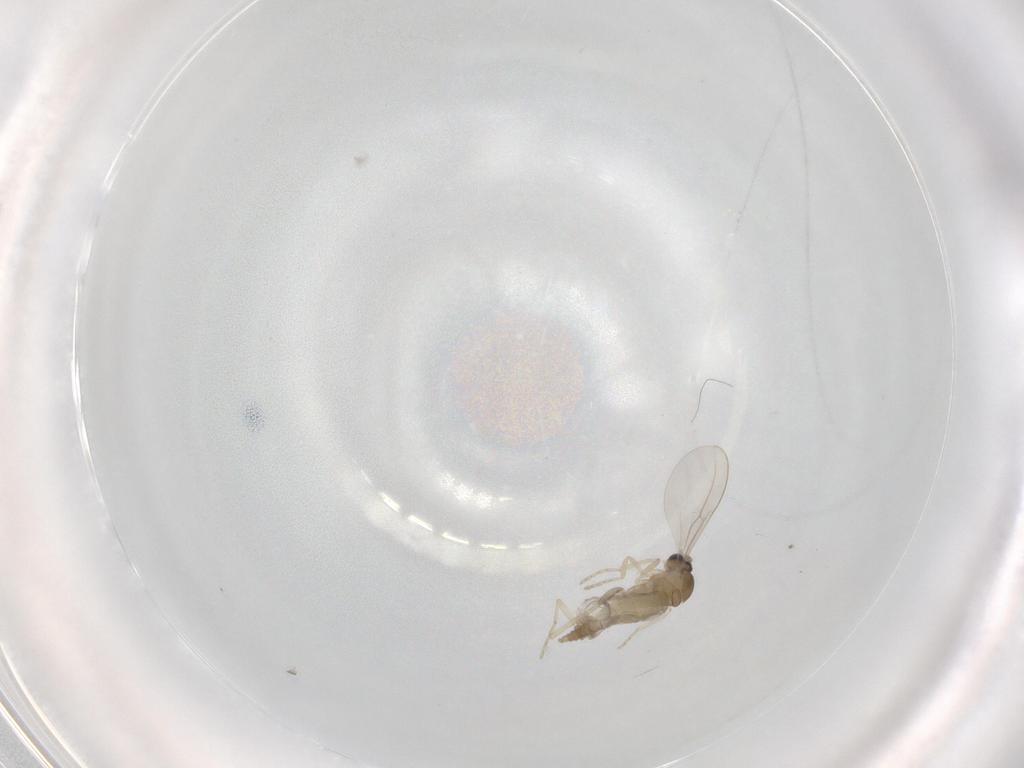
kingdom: Animalia
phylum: Arthropoda
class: Insecta
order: Diptera
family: Cecidomyiidae
